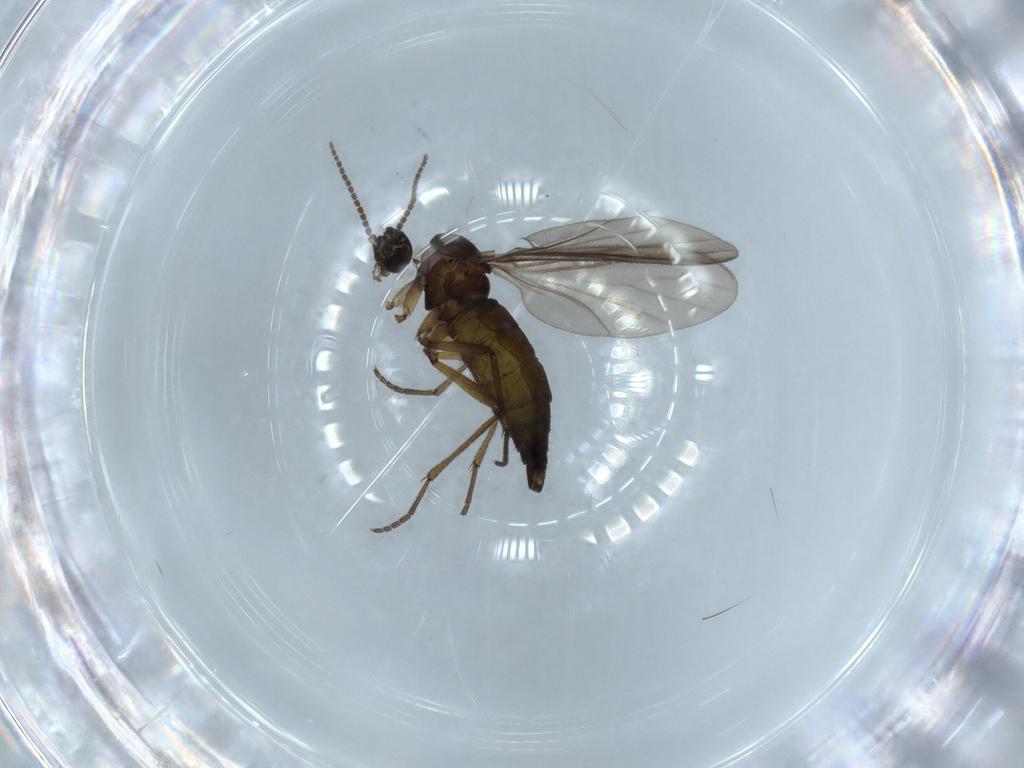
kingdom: Animalia
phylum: Arthropoda
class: Insecta
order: Diptera
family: Sciaridae
